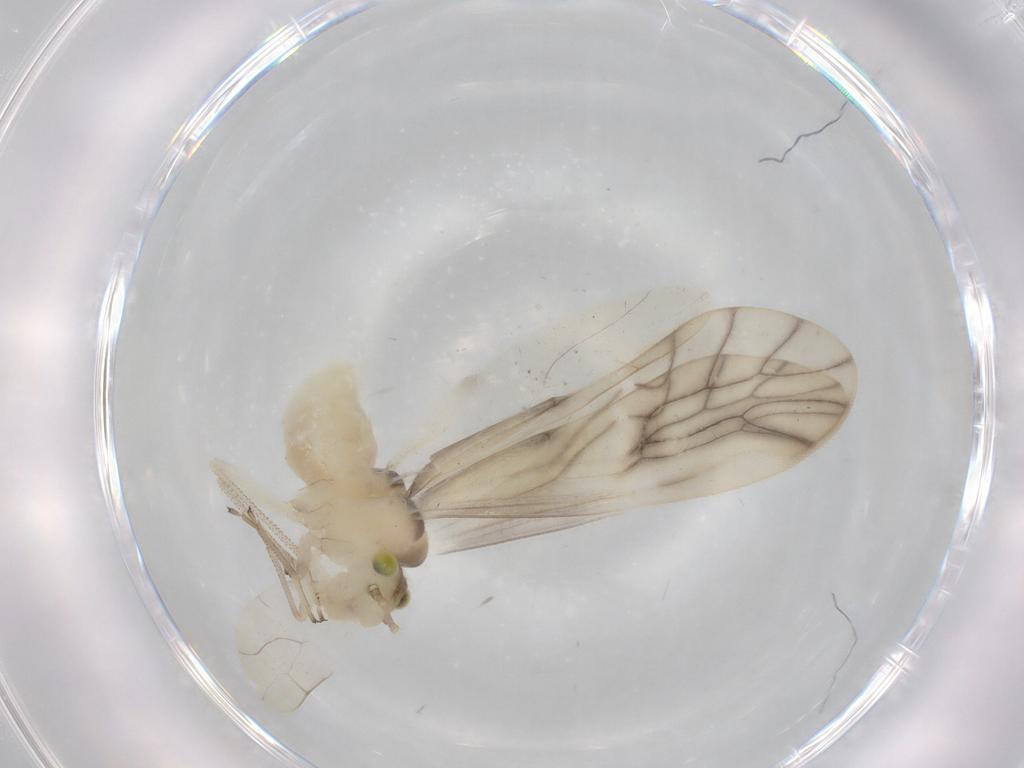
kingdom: Animalia
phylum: Arthropoda
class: Insecta
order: Psocodea
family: Caeciliusidae
